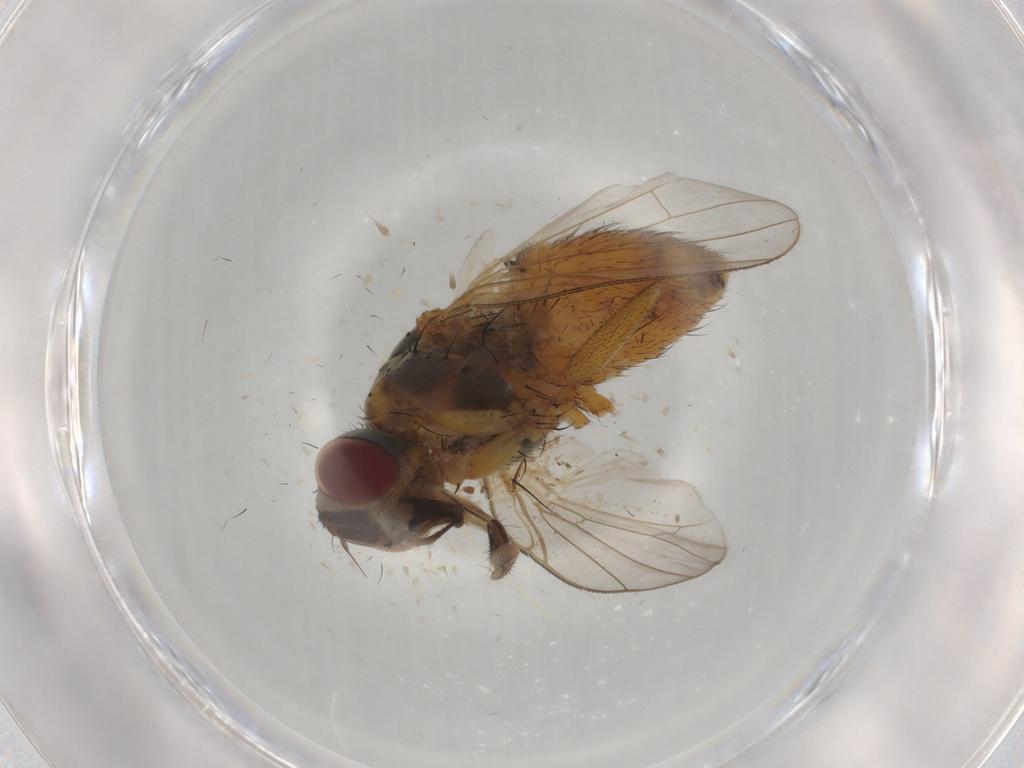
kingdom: Animalia
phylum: Arthropoda
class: Insecta
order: Diptera
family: Muscidae
